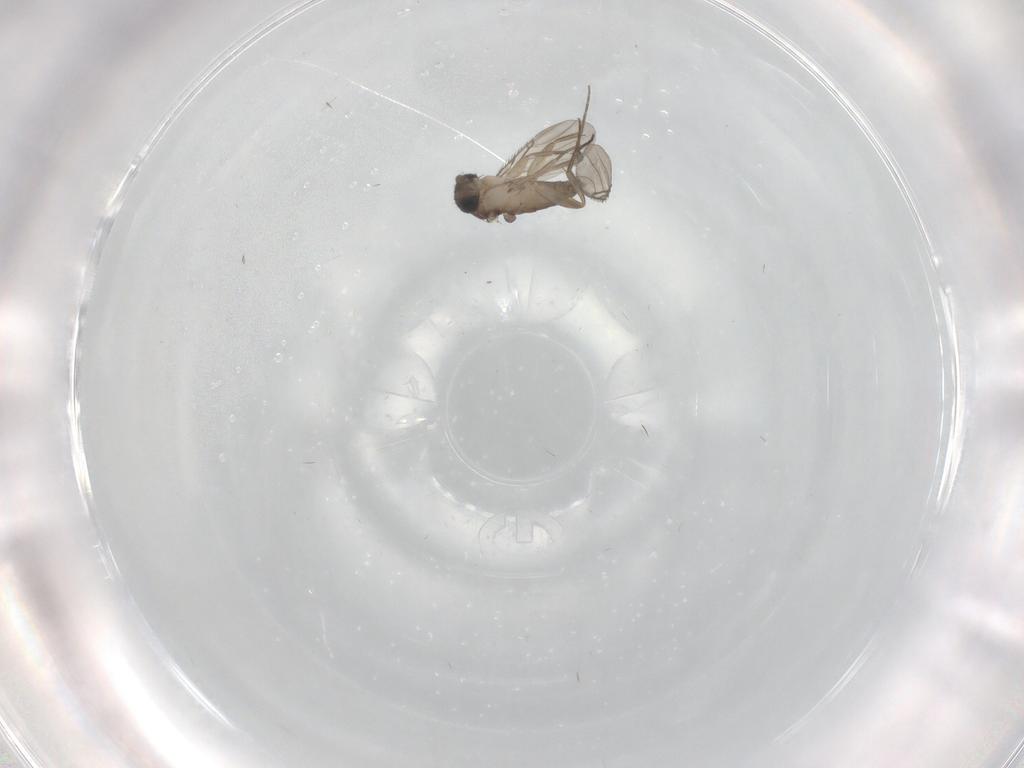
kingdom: Animalia
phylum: Arthropoda
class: Insecta
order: Diptera
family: Phoridae
